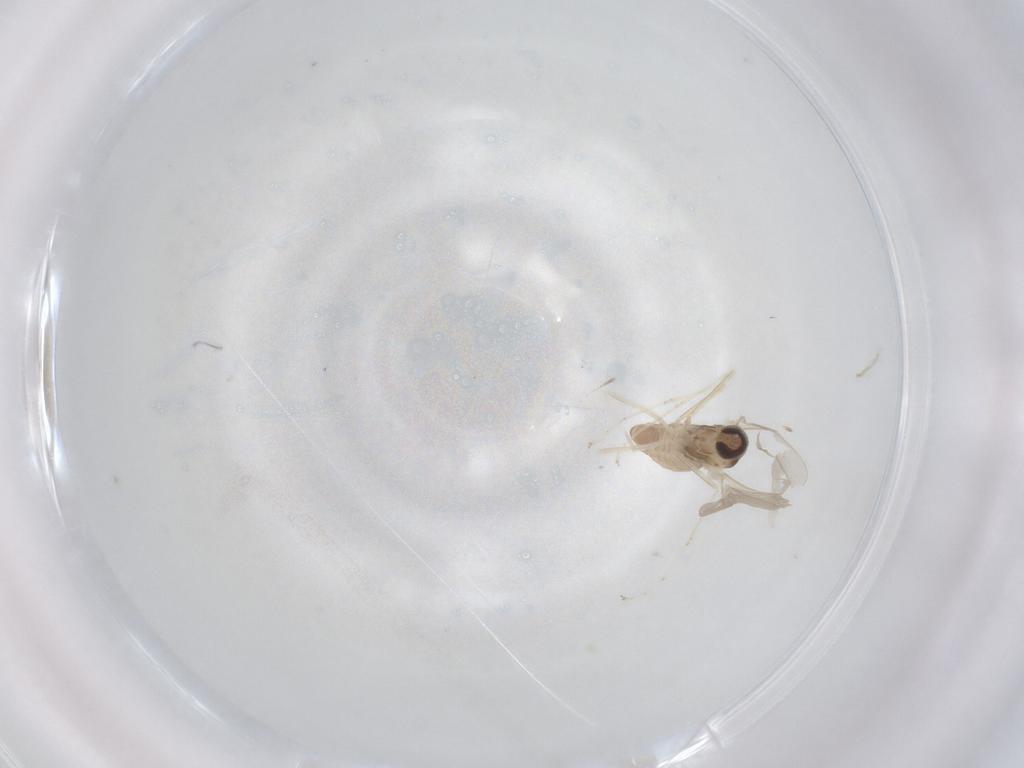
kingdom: Animalia
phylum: Arthropoda
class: Insecta
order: Diptera
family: Cecidomyiidae
